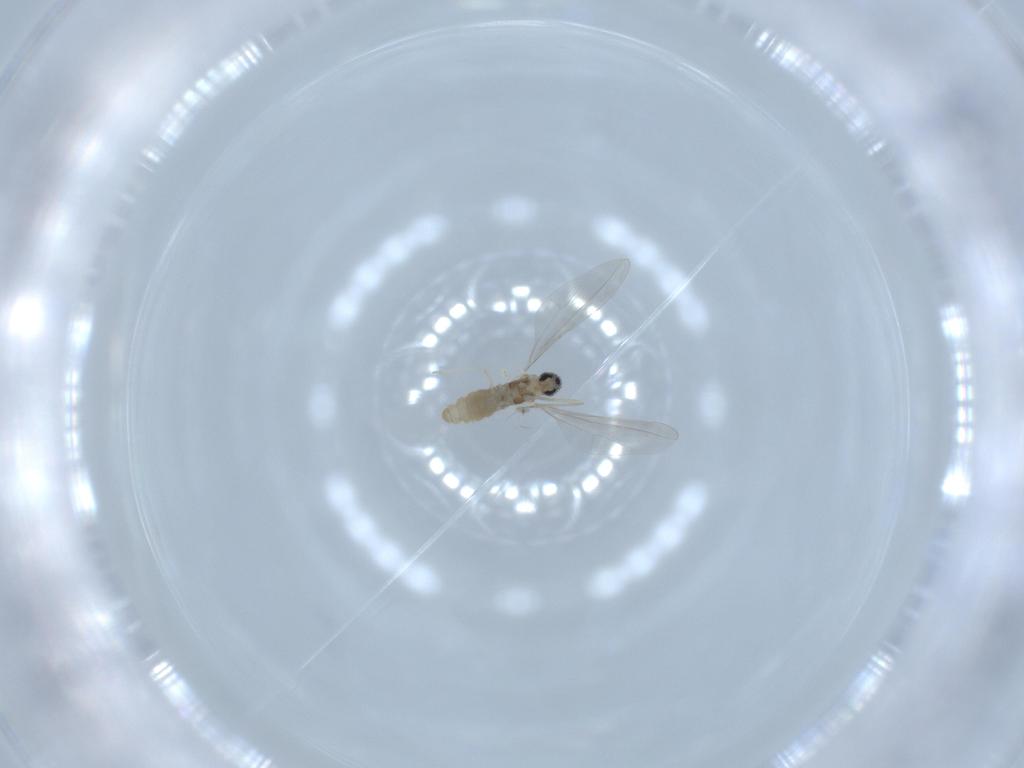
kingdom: Animalia
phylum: Arthropoda
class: Insecta
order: Diptera
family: Cecidomyiidae
